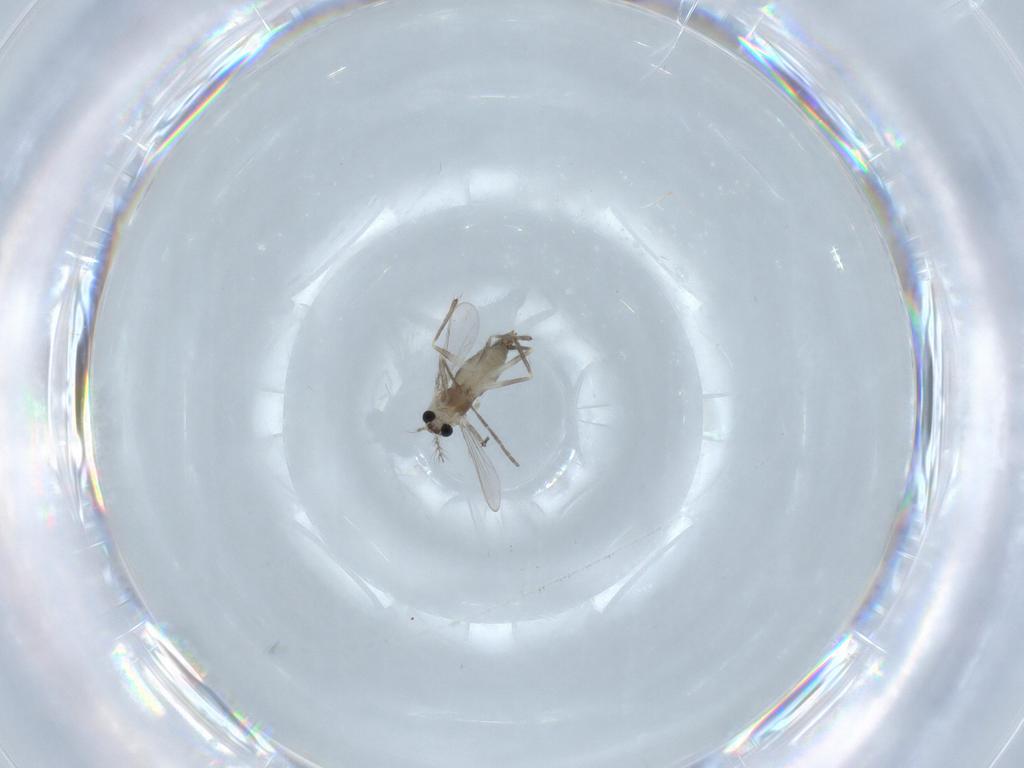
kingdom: Animalia
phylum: Arthropoda
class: Insecta
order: Diptera
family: Chironomidae
